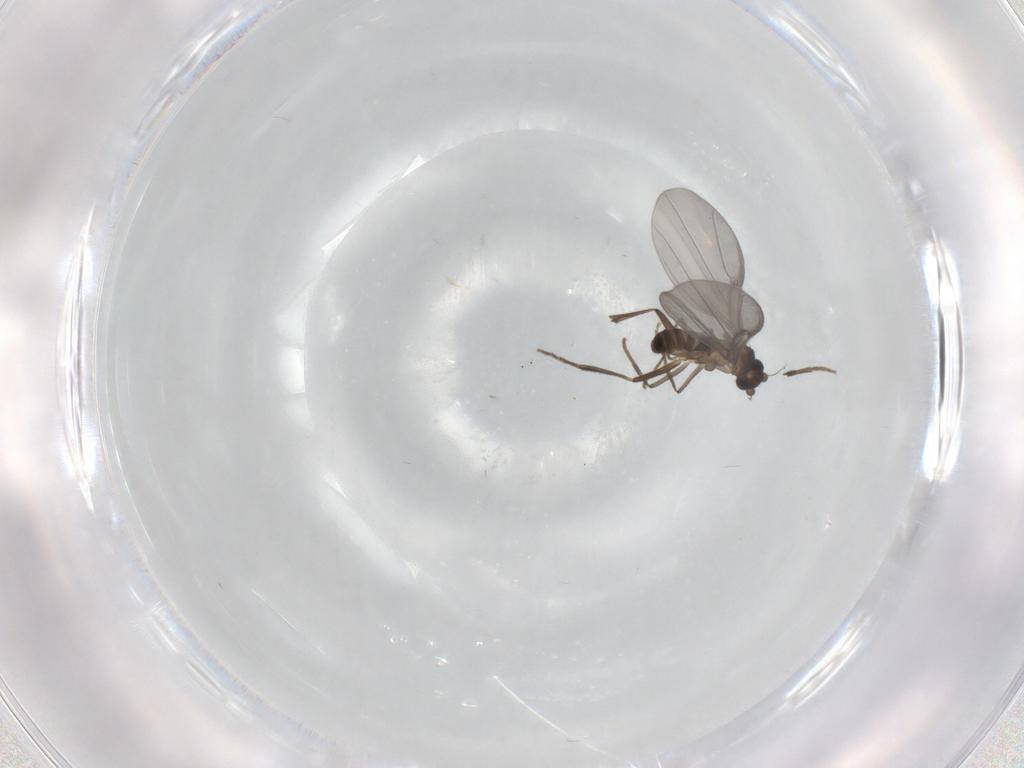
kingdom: Animalia
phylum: Arthropoda
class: Insecta
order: Diptera
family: Phoridae
